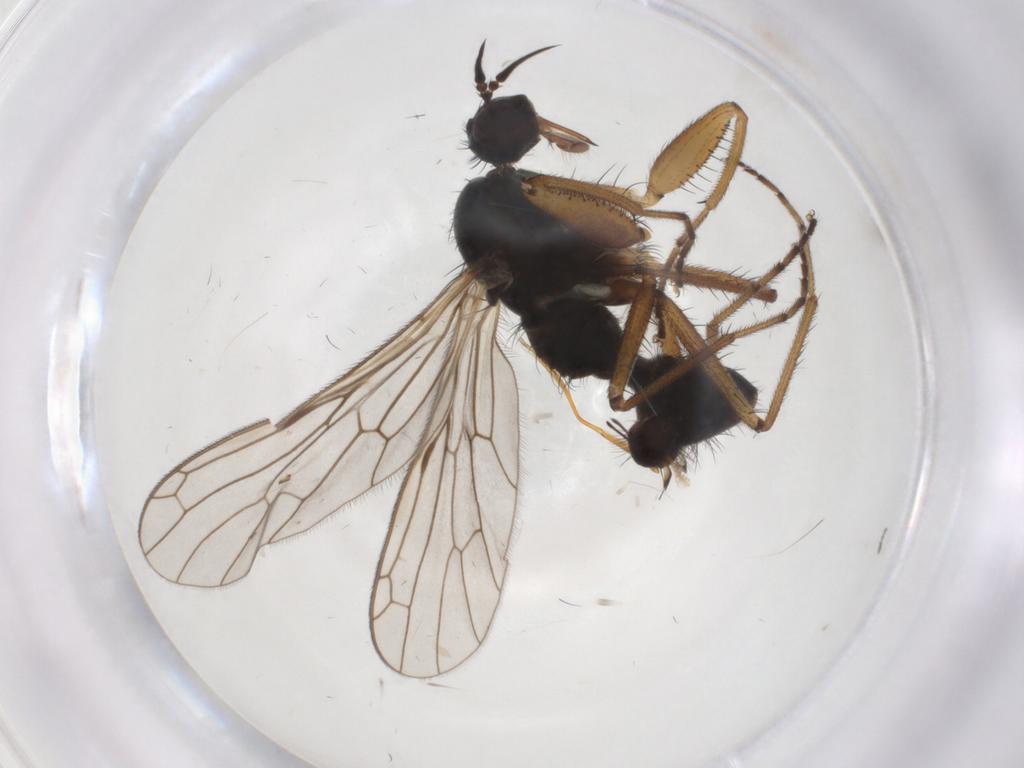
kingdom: Animalia
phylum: Arthropoda
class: Insecta
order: Diptera
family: Empididae
